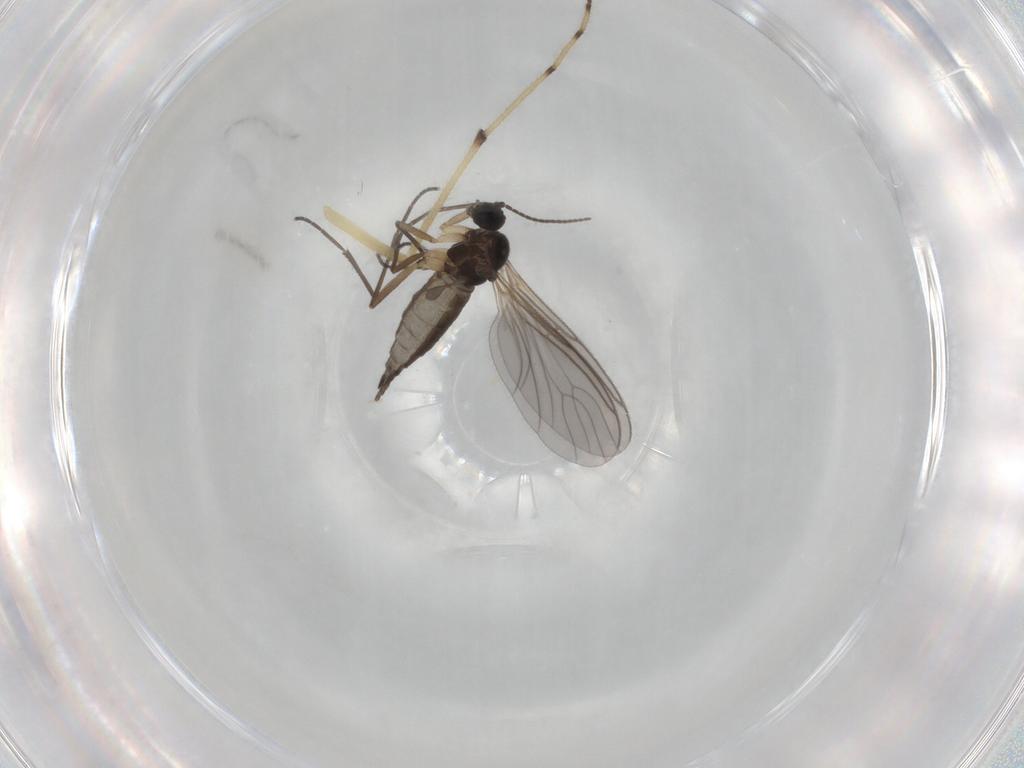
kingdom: Animalia
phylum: Arthropoda
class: Insecta
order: Diptera
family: Sciaridae
